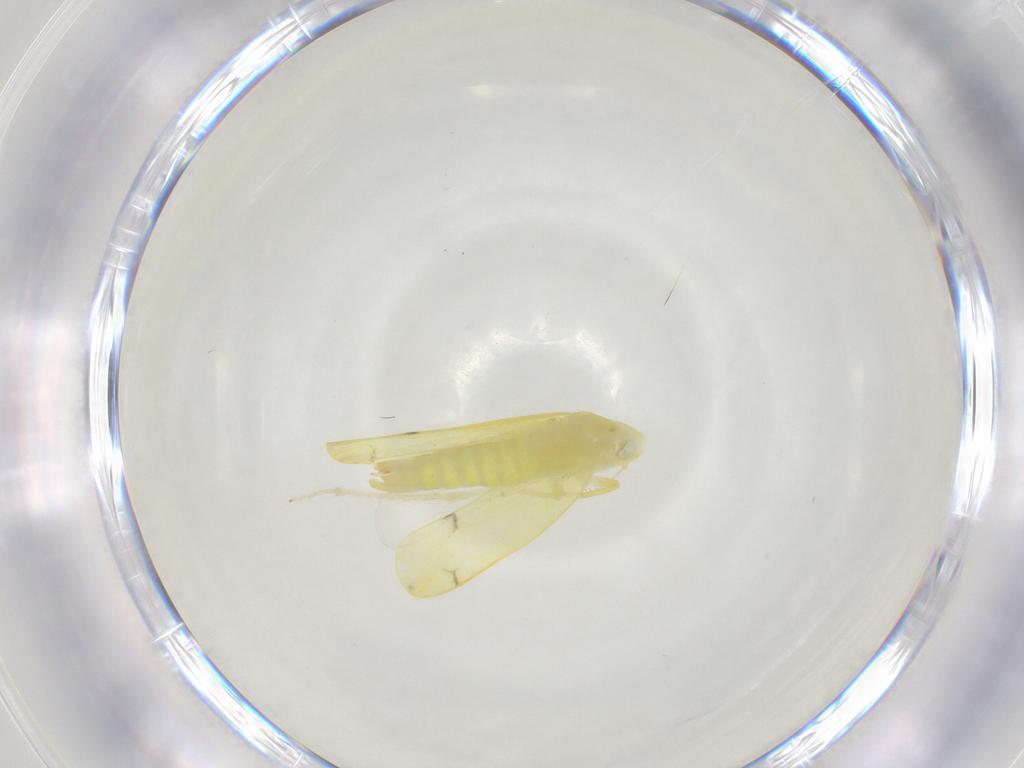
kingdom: Animalia
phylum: Arthropoda
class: Insecta
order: Hemiptera
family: Cicadellidae
